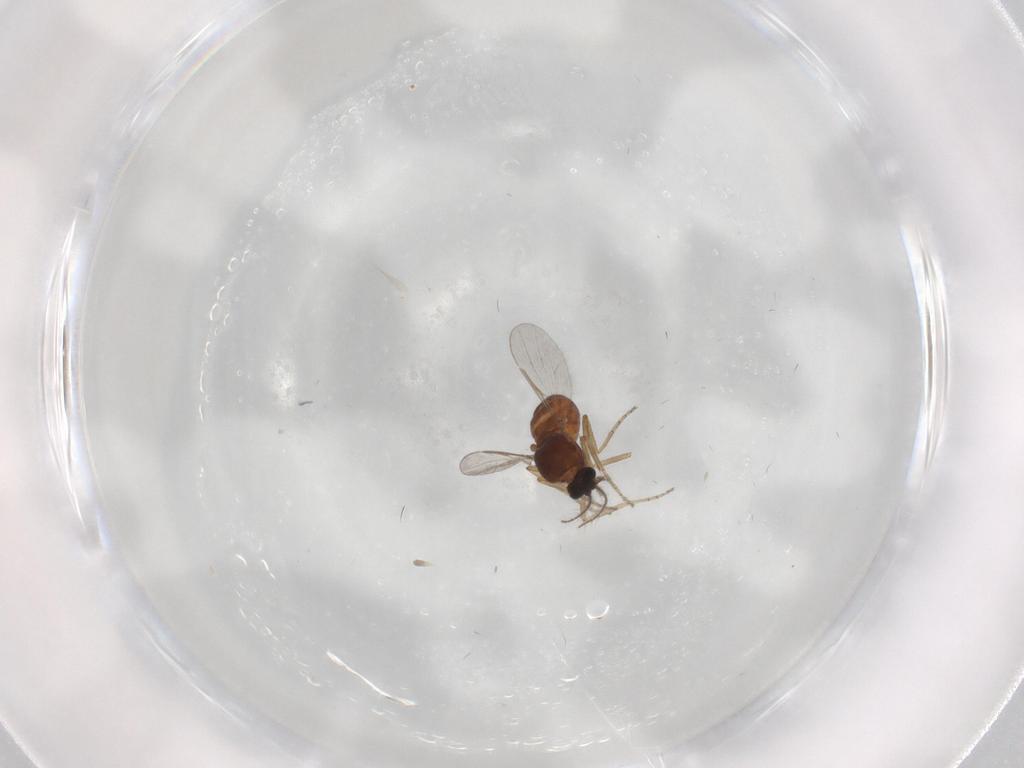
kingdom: Animalia
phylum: Arthropoda
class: Insecta
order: Diptera
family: Ceratopogonidae
